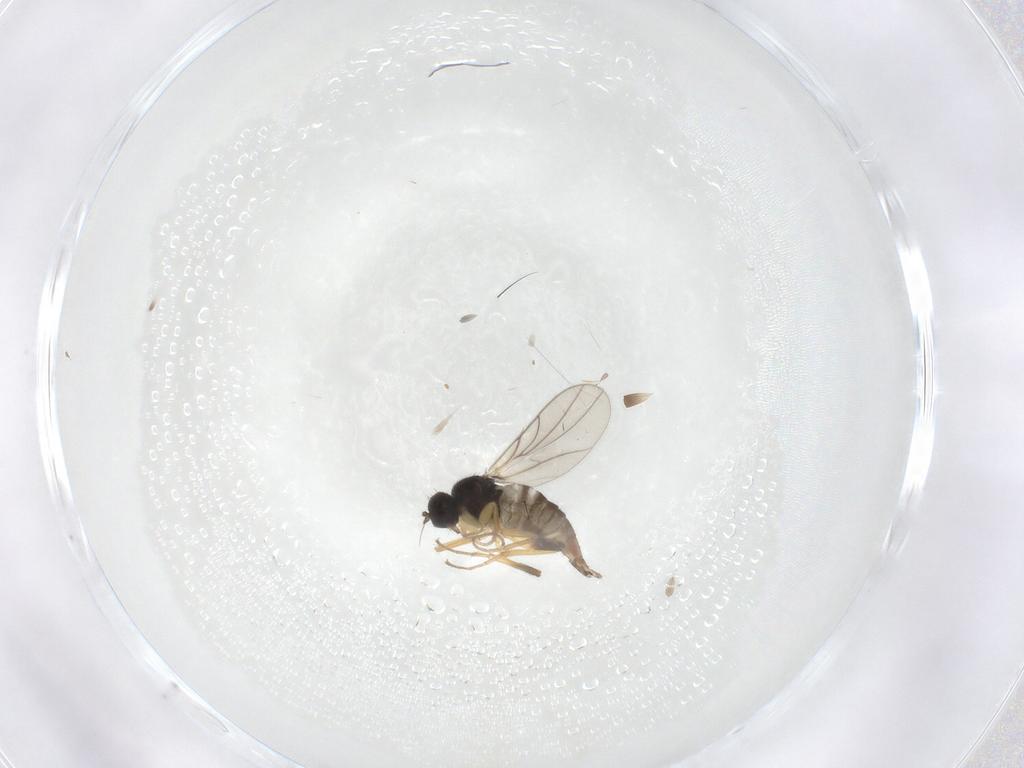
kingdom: Animalia
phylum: Arthropoda
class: Insecta
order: Diptera
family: Hybotidae
